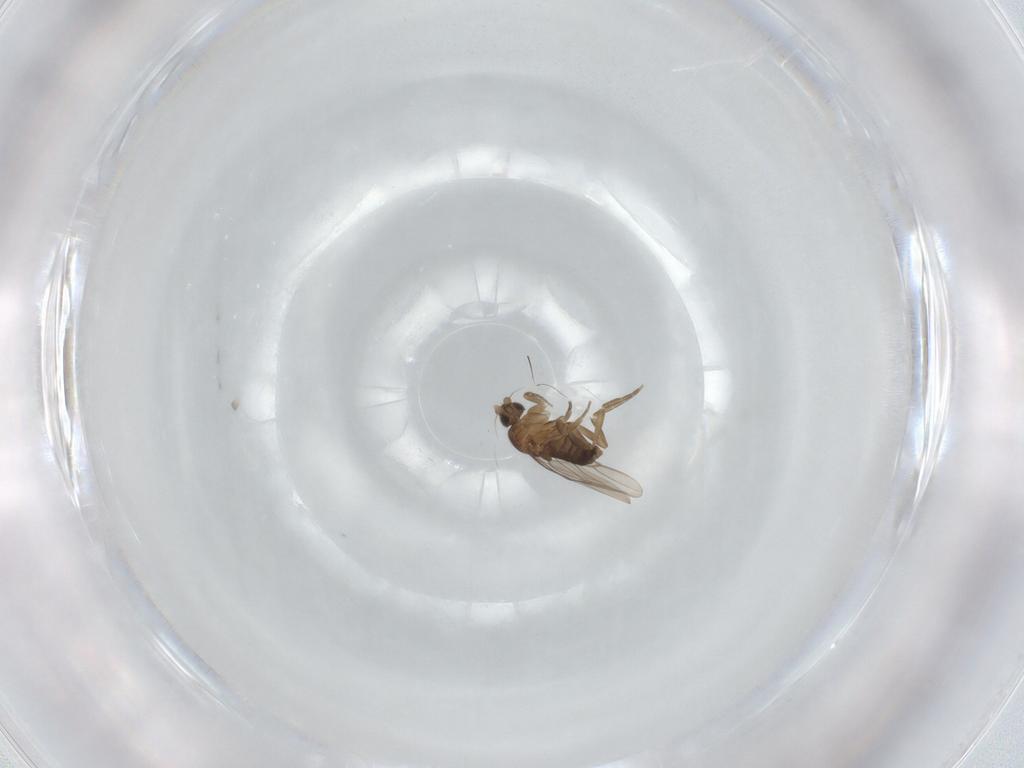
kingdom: Animalia
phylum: Arthropoda
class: Insecta
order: Diptera
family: Phoridae
